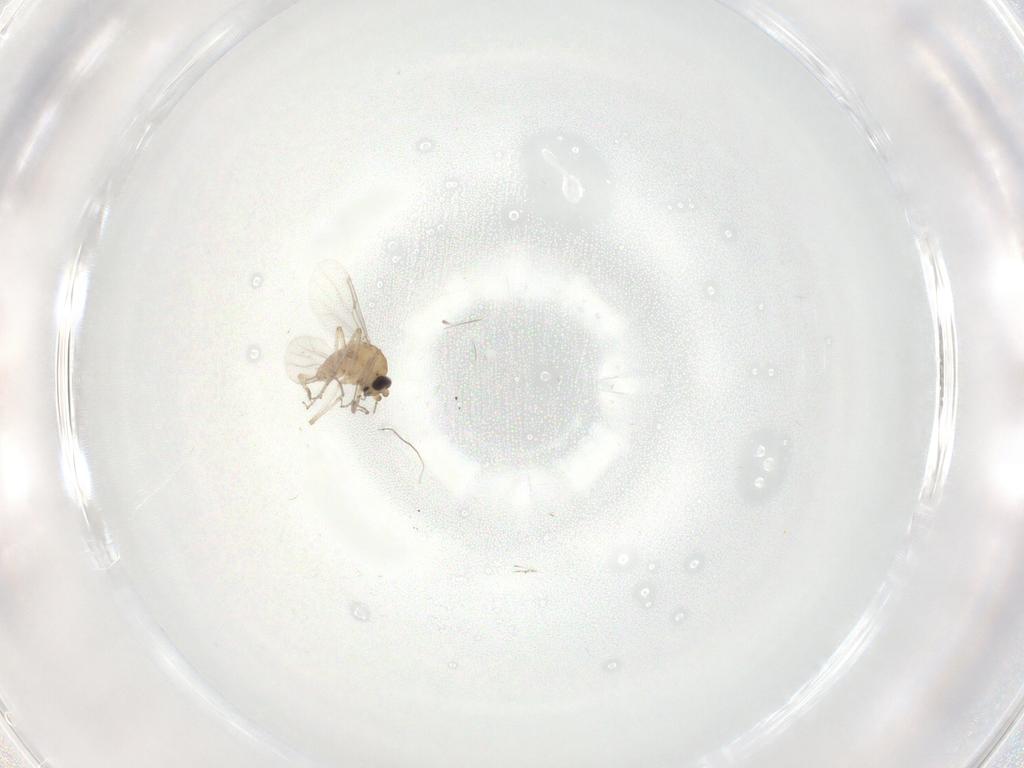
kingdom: Animalia
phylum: Arthropoda
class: Insecta
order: Diptera
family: Ceratopogonidae
